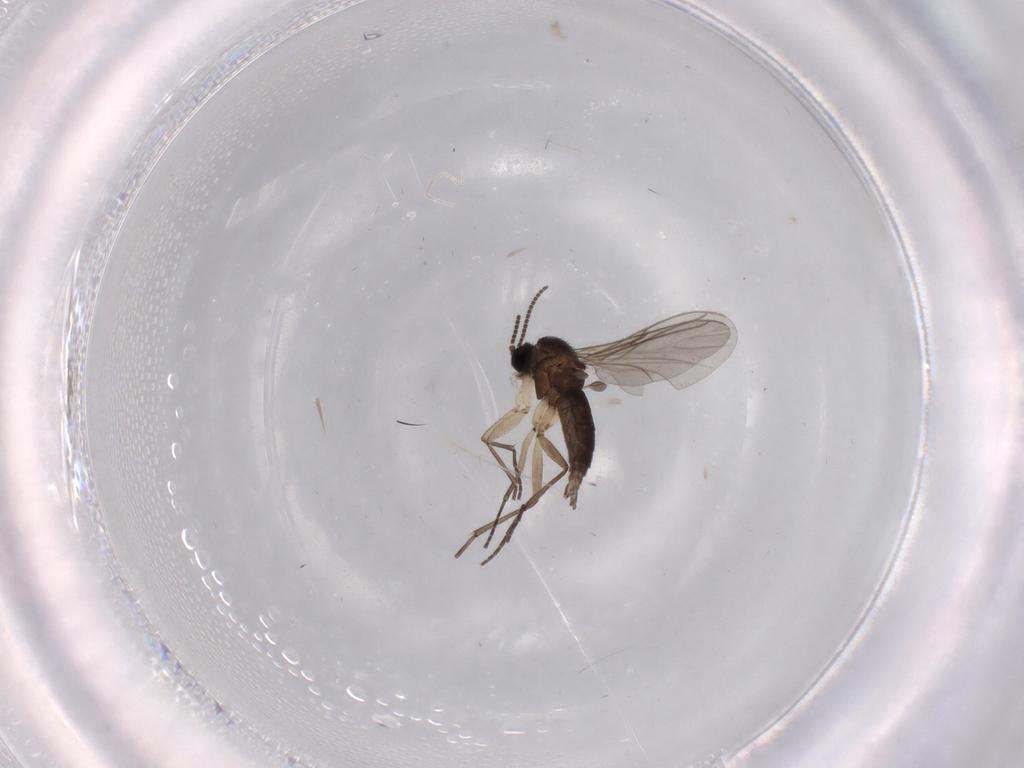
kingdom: Animalia
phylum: Arthropoda
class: Insecta
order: Diptera
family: Sciaridae
